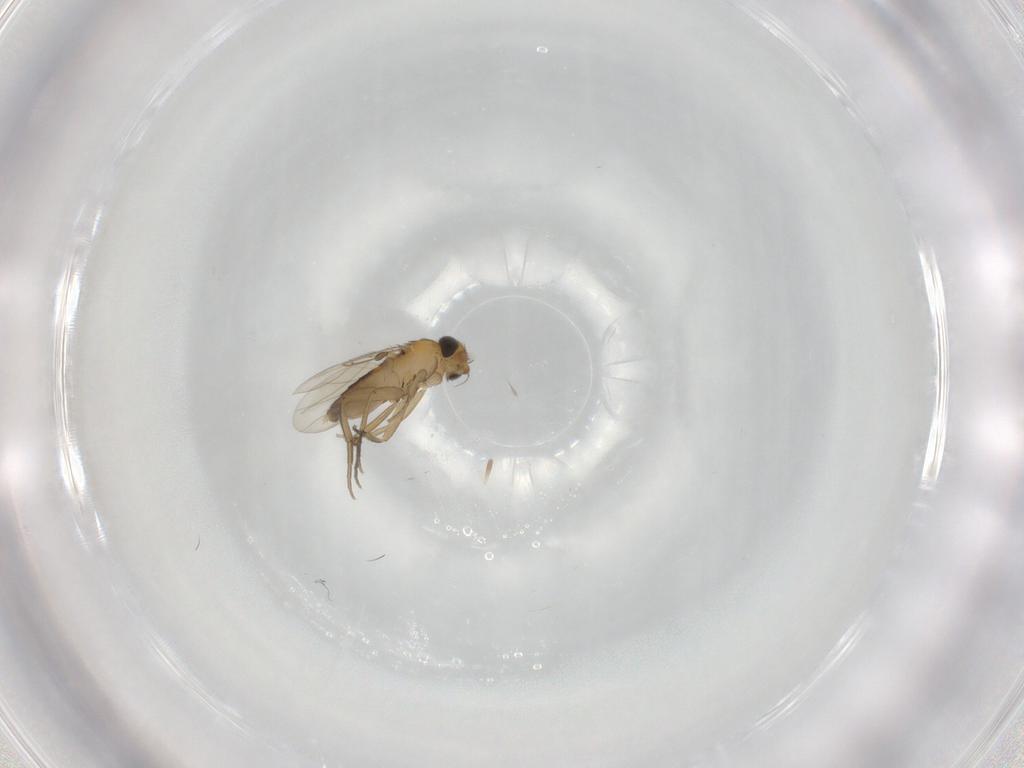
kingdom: Animalia
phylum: Arthropoda
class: Insecta
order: Diptera
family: Phoridae
